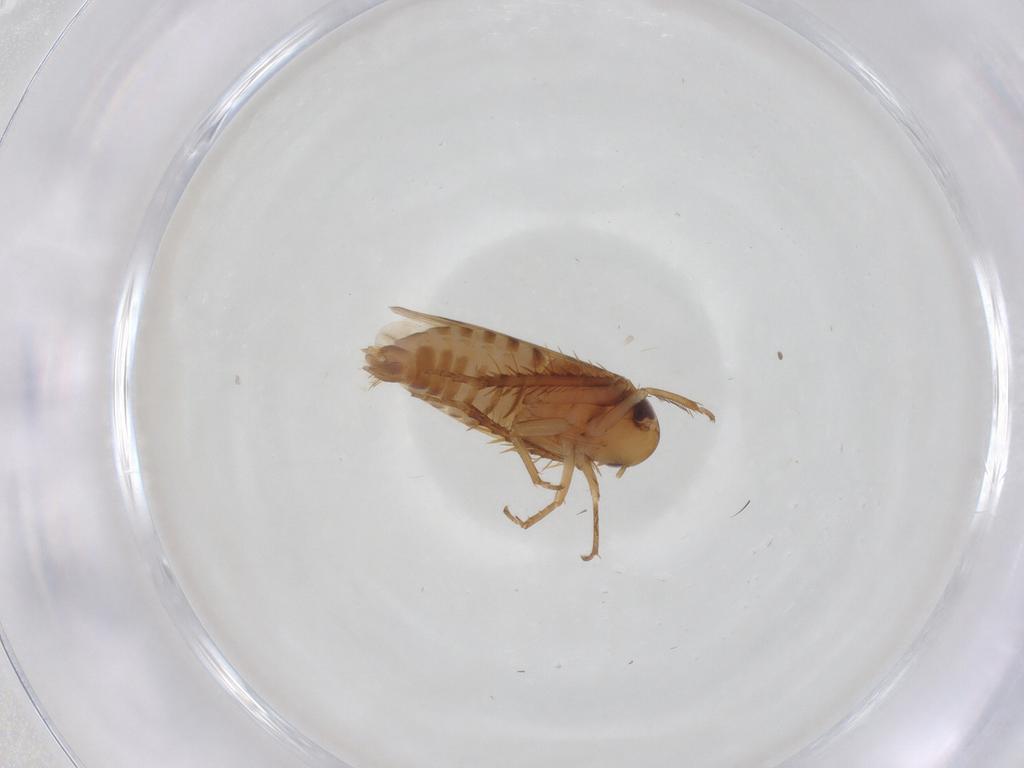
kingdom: Animalia
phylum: Arthropoda
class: Insecta
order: Hemiptera
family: Cicadellidae
